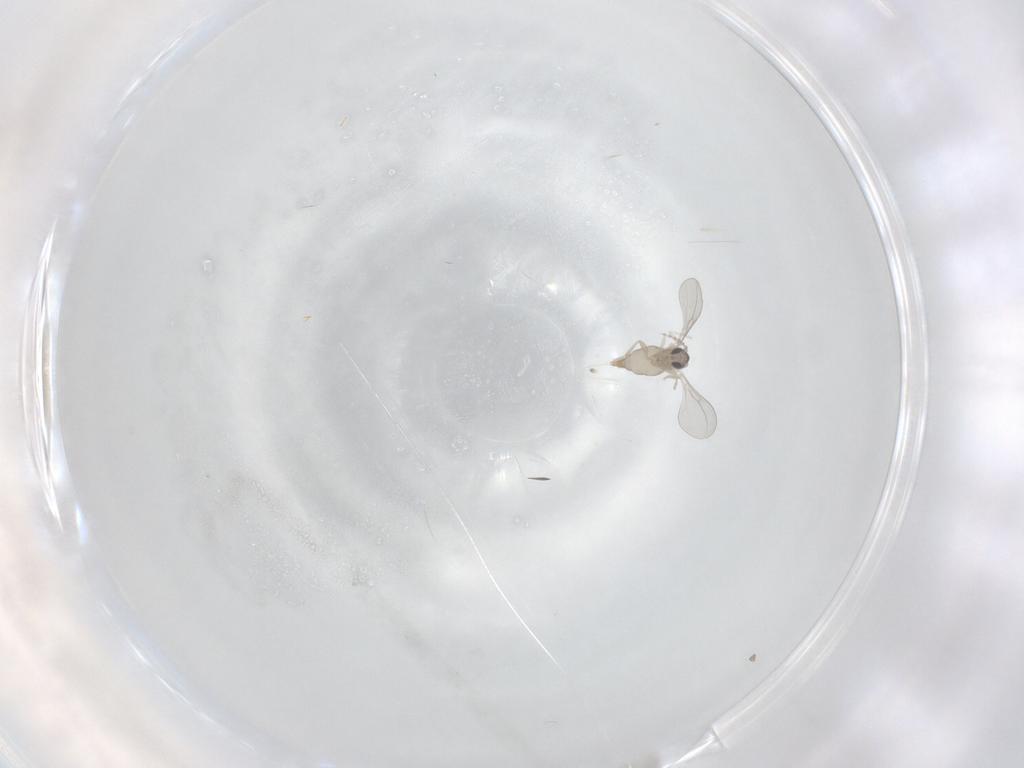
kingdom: Animalia
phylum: Arthropoda
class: Insecta
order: Diptera
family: Cecidomyiidae
